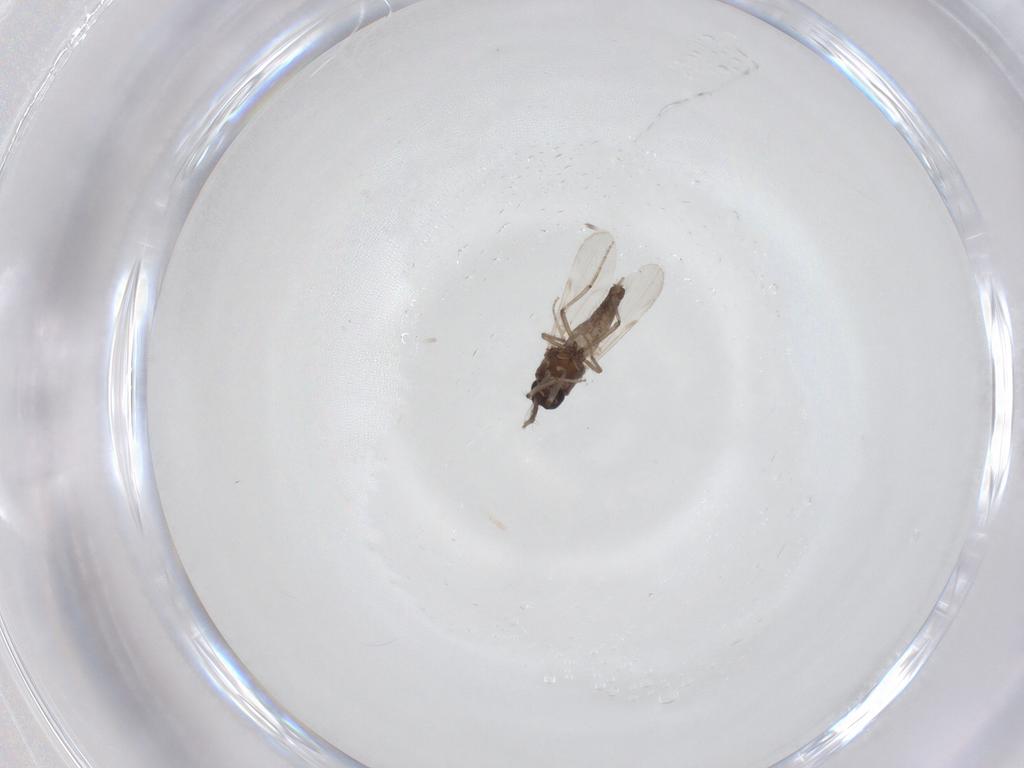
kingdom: Animalia
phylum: Arthropoda
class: Insecta
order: Diptera
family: Ceratopogonidae
